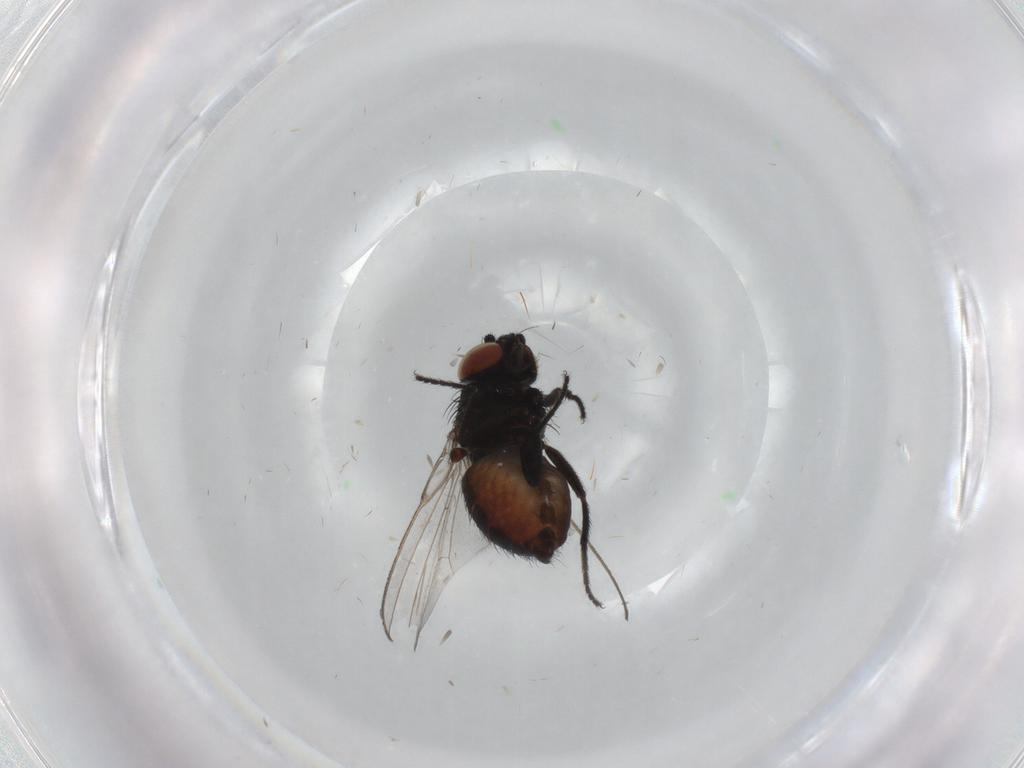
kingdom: Animalia
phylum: Arthropoda
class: Insecta
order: Diptera
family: Milichiidae
